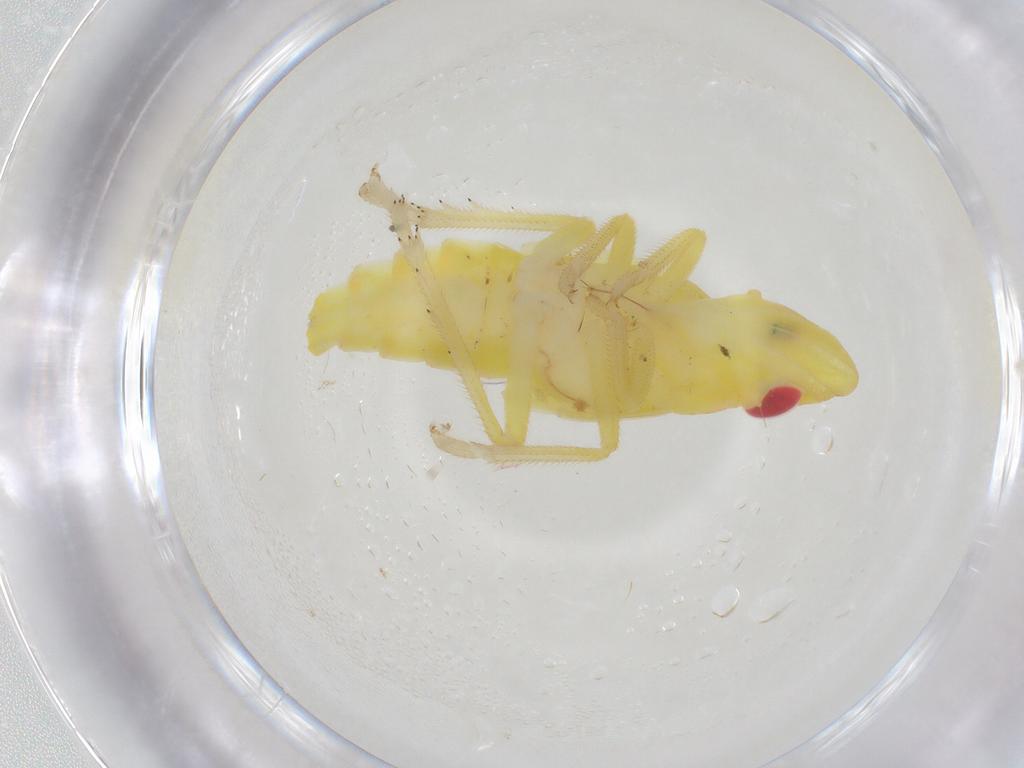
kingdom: Animalia
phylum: Arthropoda
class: Insecta
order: Hemiptera
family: Tropiduchidae
